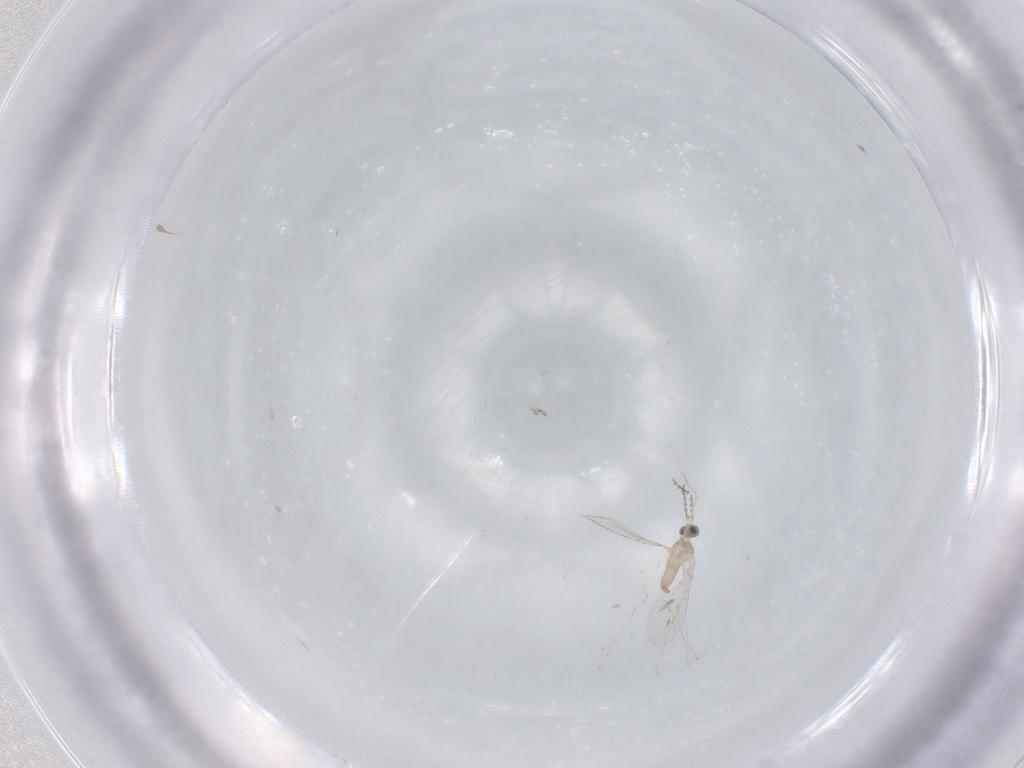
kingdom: Animalia
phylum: Arthropoda
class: Insecta
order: Diptera
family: Cecidomyiidae
